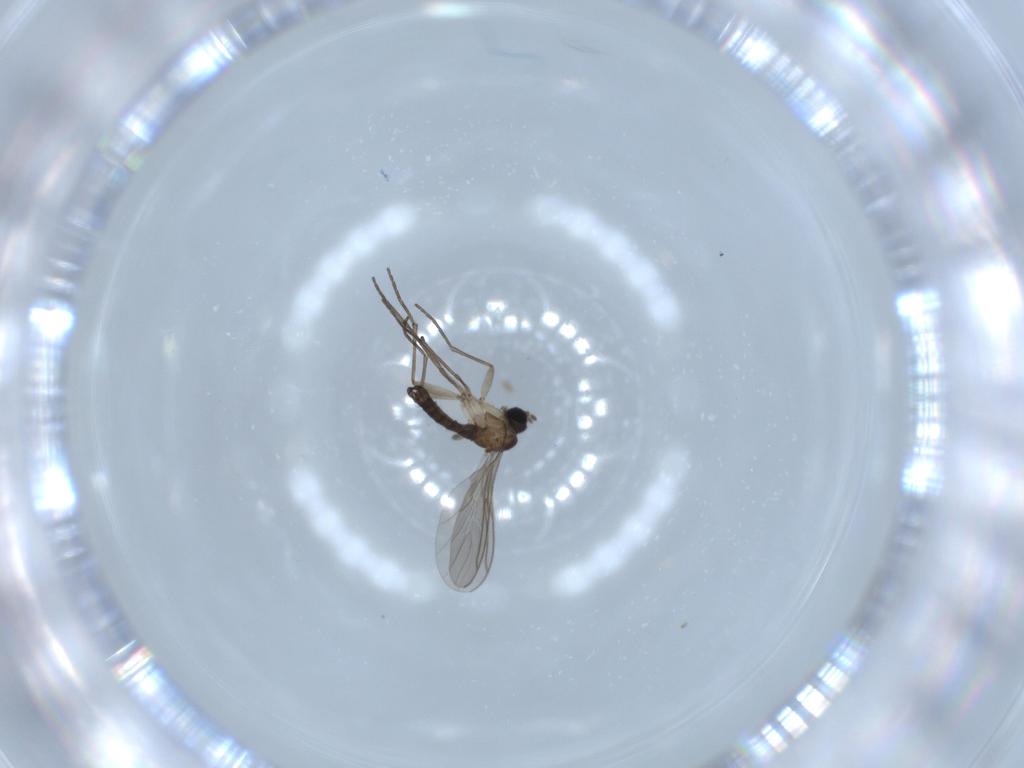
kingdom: Animalia
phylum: Arthropoda
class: Insecta
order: Diptera
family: Sciaridae
